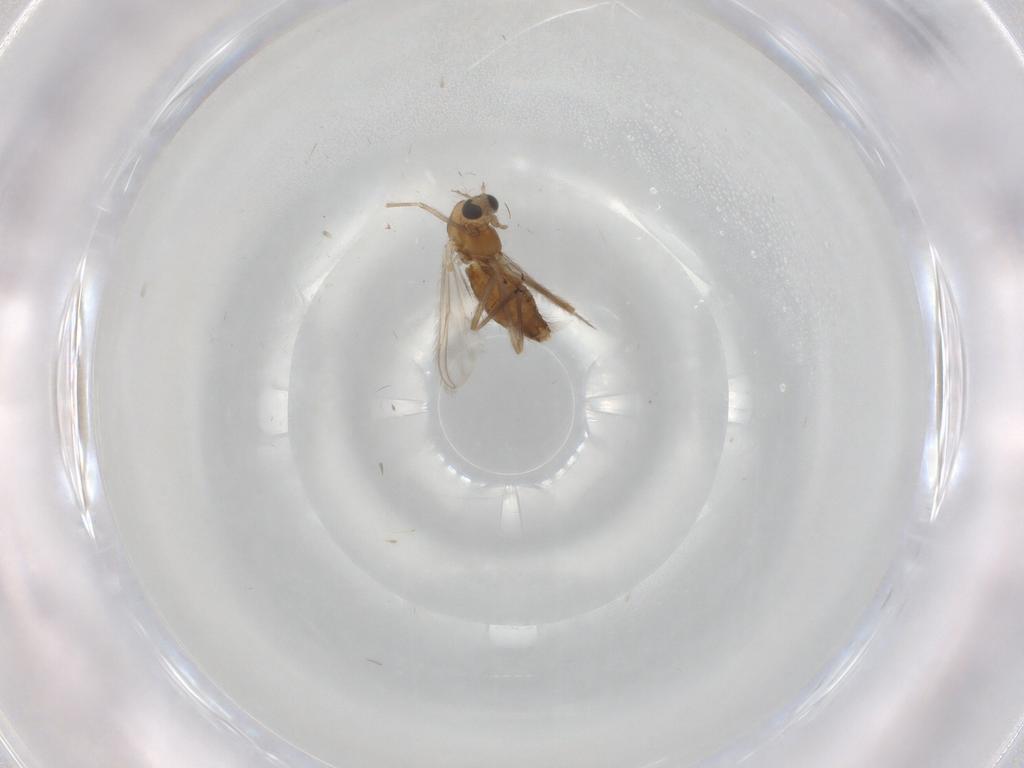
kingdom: Animalia
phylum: Arthropoda
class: Insecta
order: Diptera
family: Chironomidae
